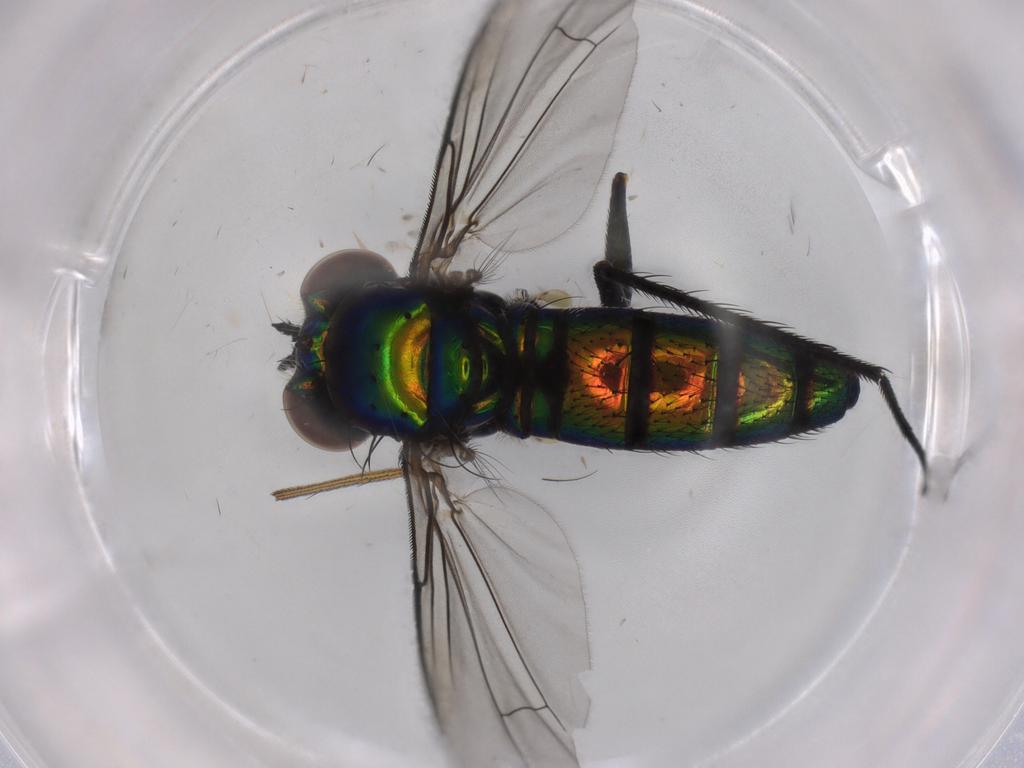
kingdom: Animalia
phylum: Arthropoda
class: Insecta
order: Diptera
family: Dolichopodidae
